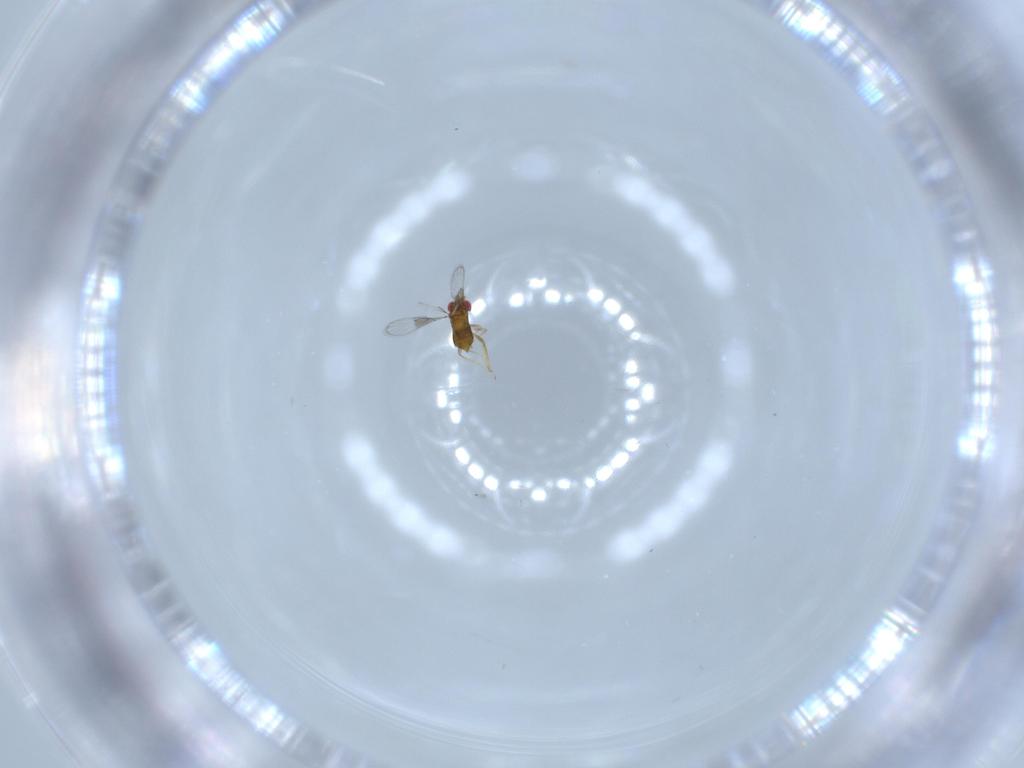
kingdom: Animalia
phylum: Arthropoda
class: Insecta
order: Hymenoptera
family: Trichogrammatidae
